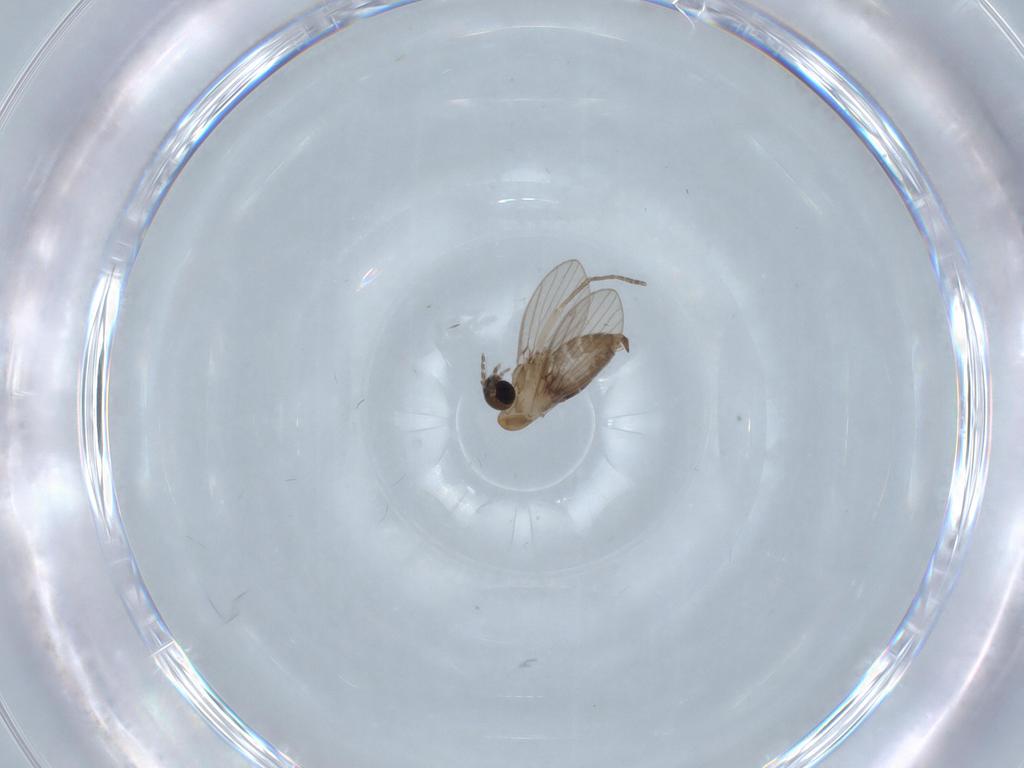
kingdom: Animalia
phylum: Arthropoda
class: Insecta
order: Diptera
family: Psychodidae
